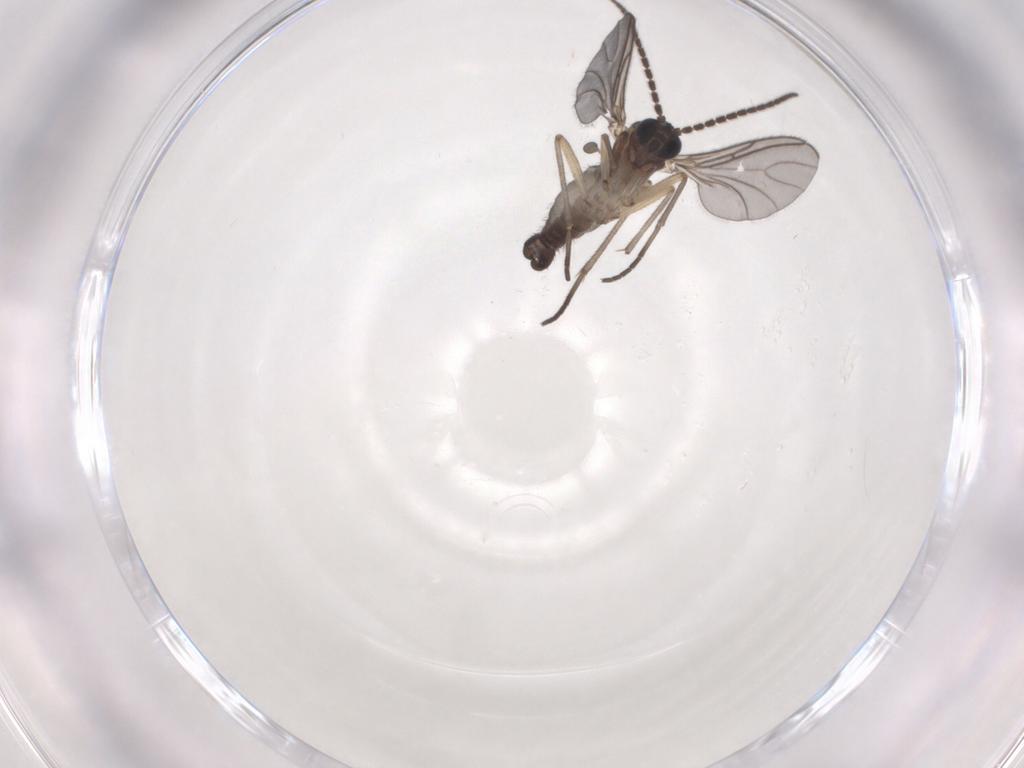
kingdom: Animalia
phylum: Arthropoda
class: Insecta
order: Diptera
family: Sciaridae
